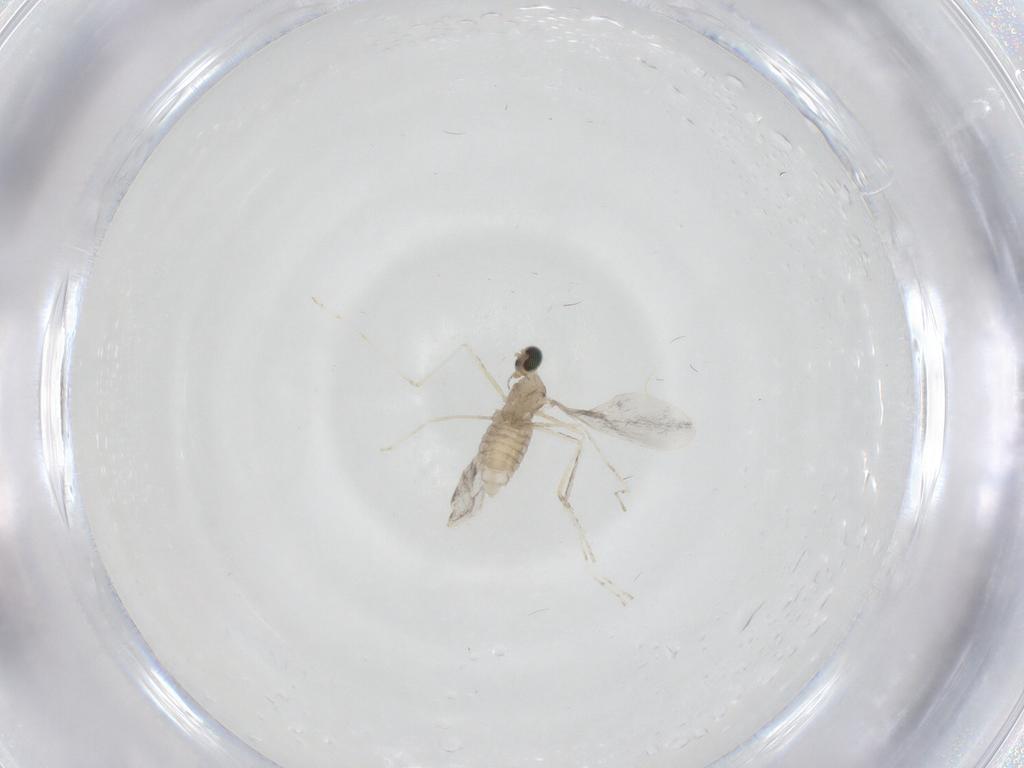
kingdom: Animalia
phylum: Arthropoda
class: Insecta
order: Diptera
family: Cecidomyiidae
